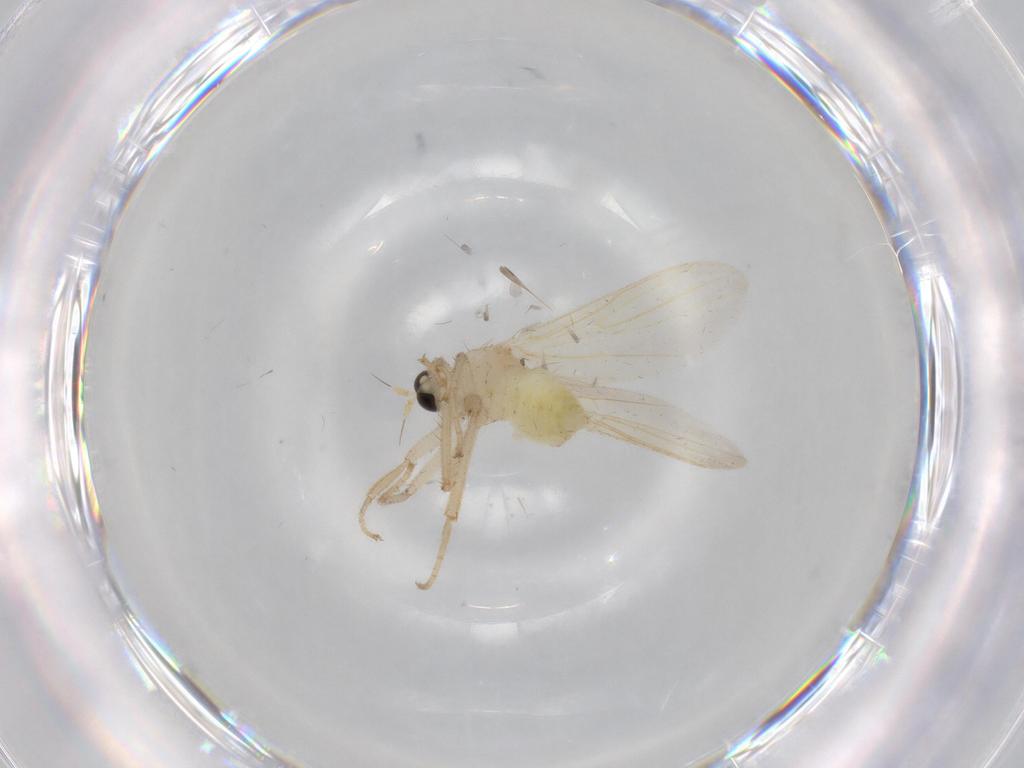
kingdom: Animalia
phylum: Arthropoda
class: Insecta
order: Diptera
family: Hybotidae
